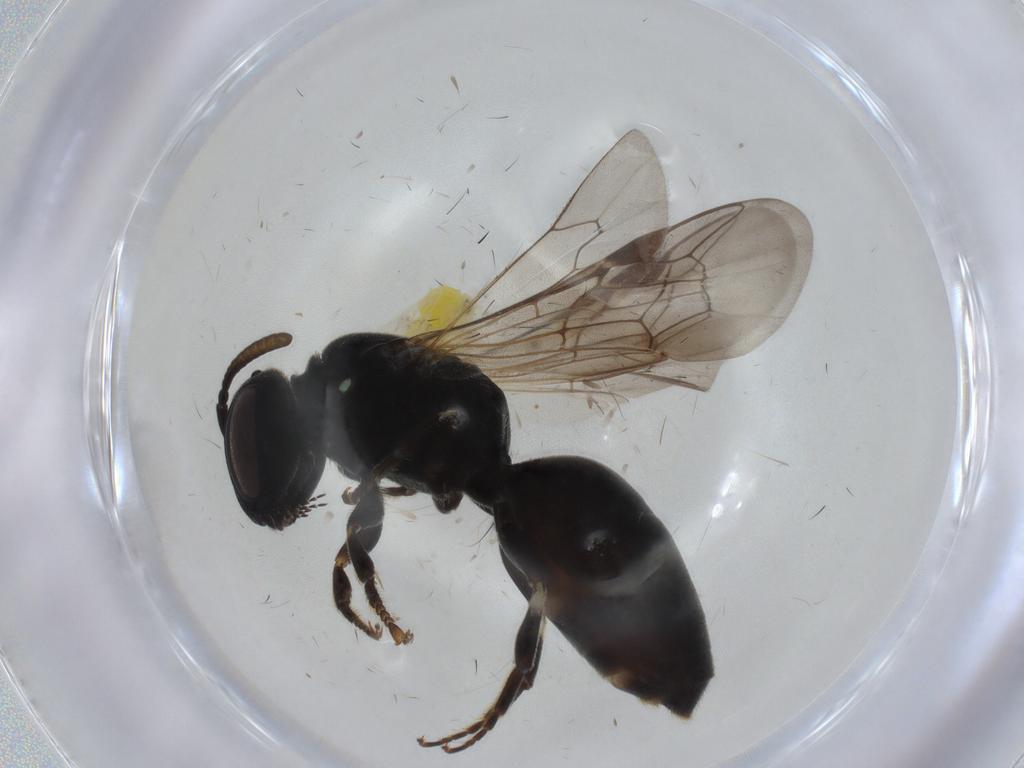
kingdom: Animalia
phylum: Arthropoda
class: Insecta
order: Hymenoptera
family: Colletidae
